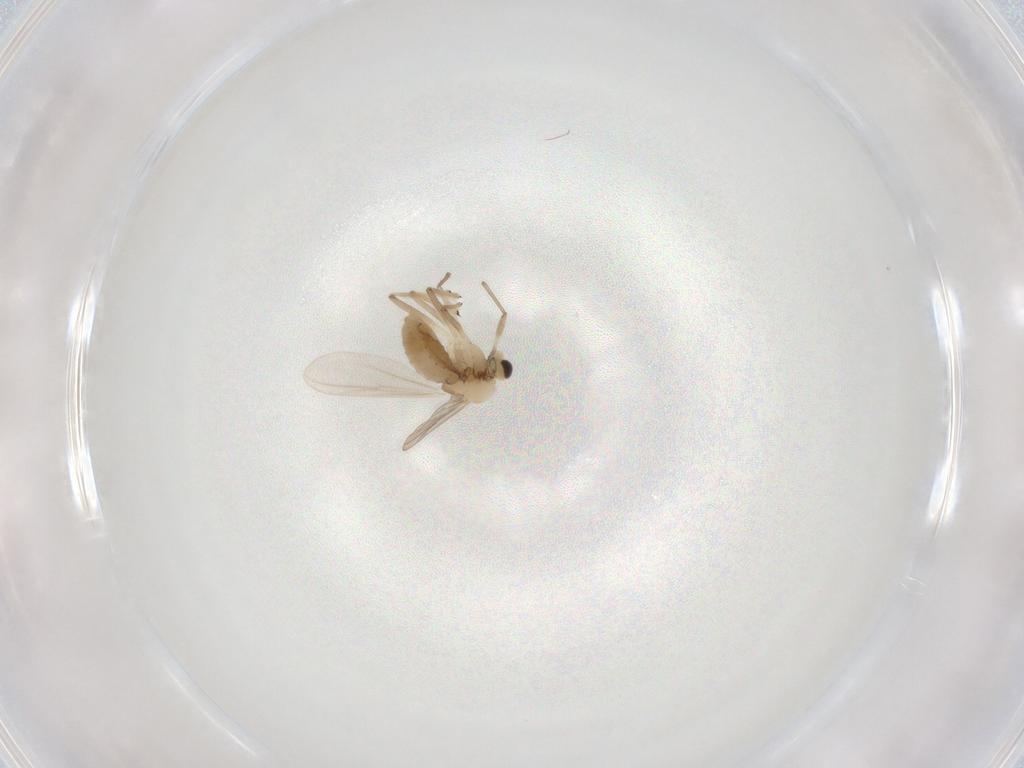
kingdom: Animalia
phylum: Arthropoda
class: Insecta
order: Diptera
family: Chironomidae
